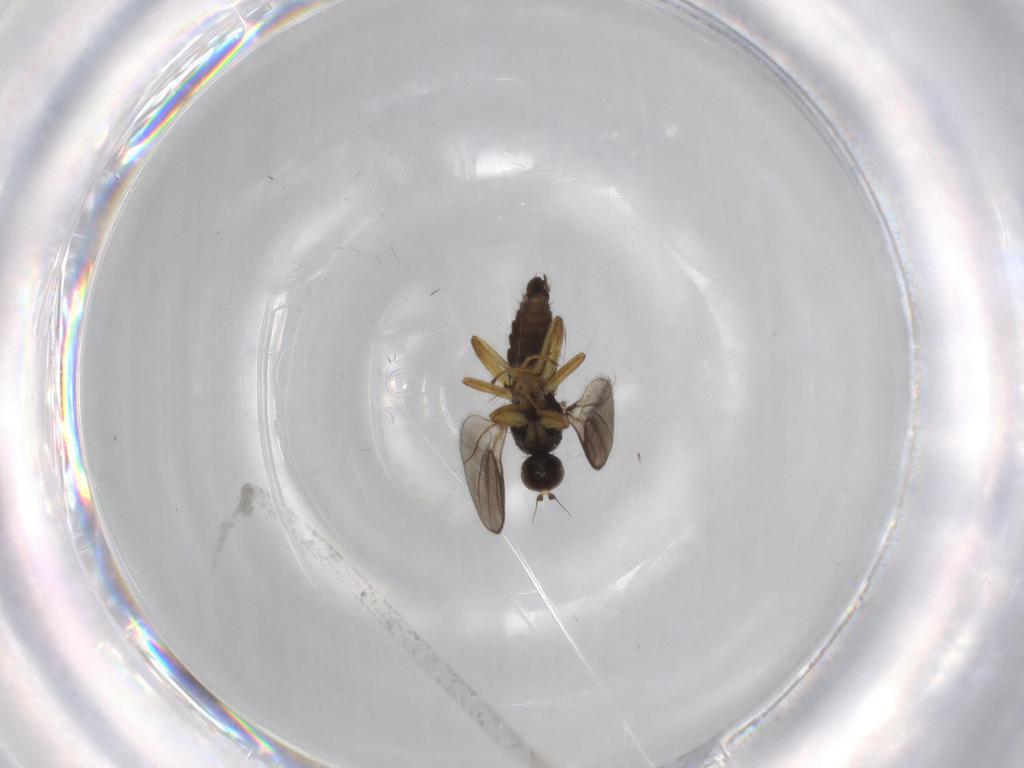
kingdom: Animalia
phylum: Arthropoda
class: Insecta
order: Diptera
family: Hybotidae
